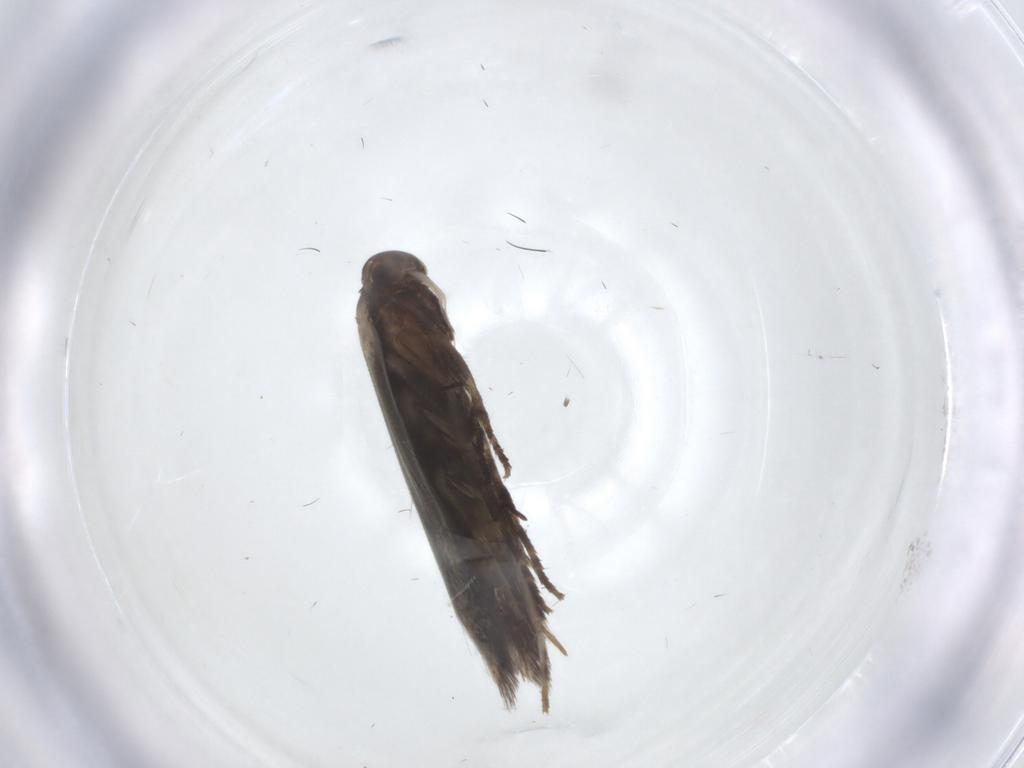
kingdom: Animalia
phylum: Arthropoda
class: Insecta
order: Lepidoptera
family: Elachistidae
